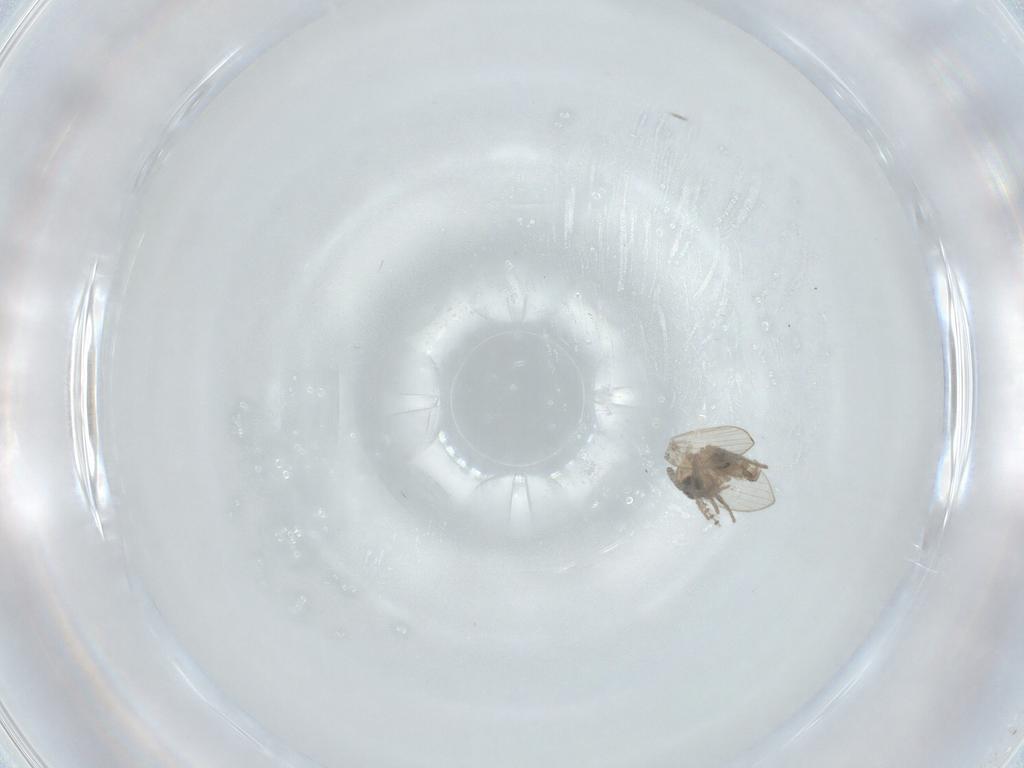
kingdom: Animalia
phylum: Arthropoda
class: Insecta
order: Diptera
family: Psychodidae
